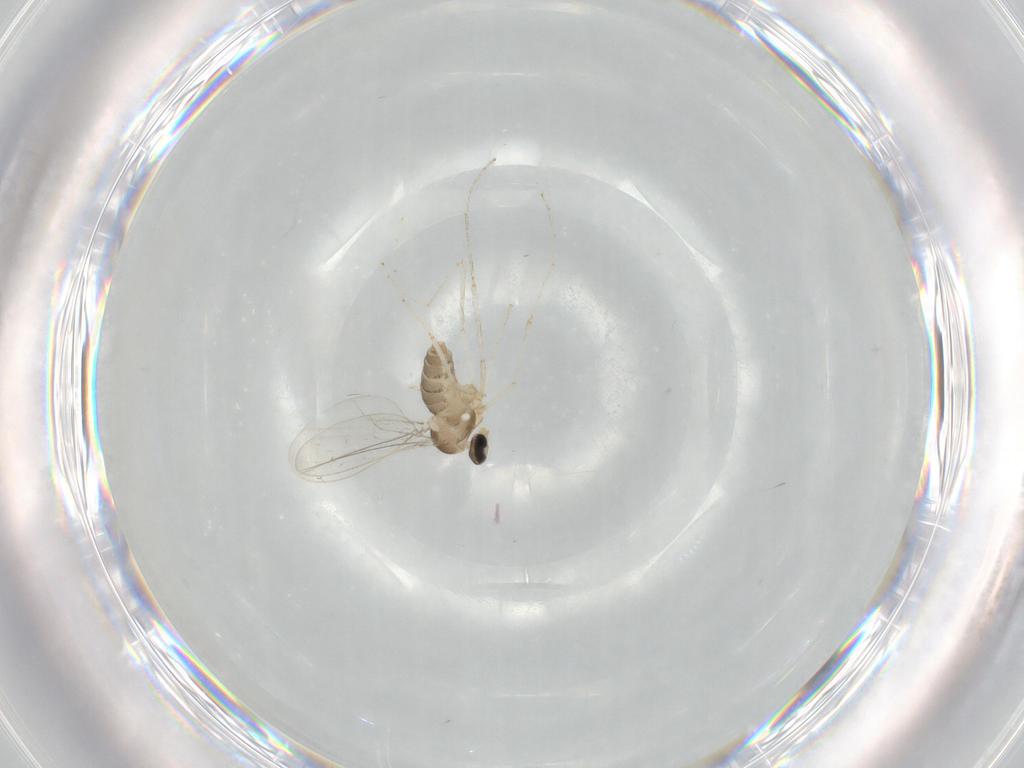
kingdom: Animalia
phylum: Arthropoda
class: Insecta
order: Diptera
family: Cecidomyiidae
